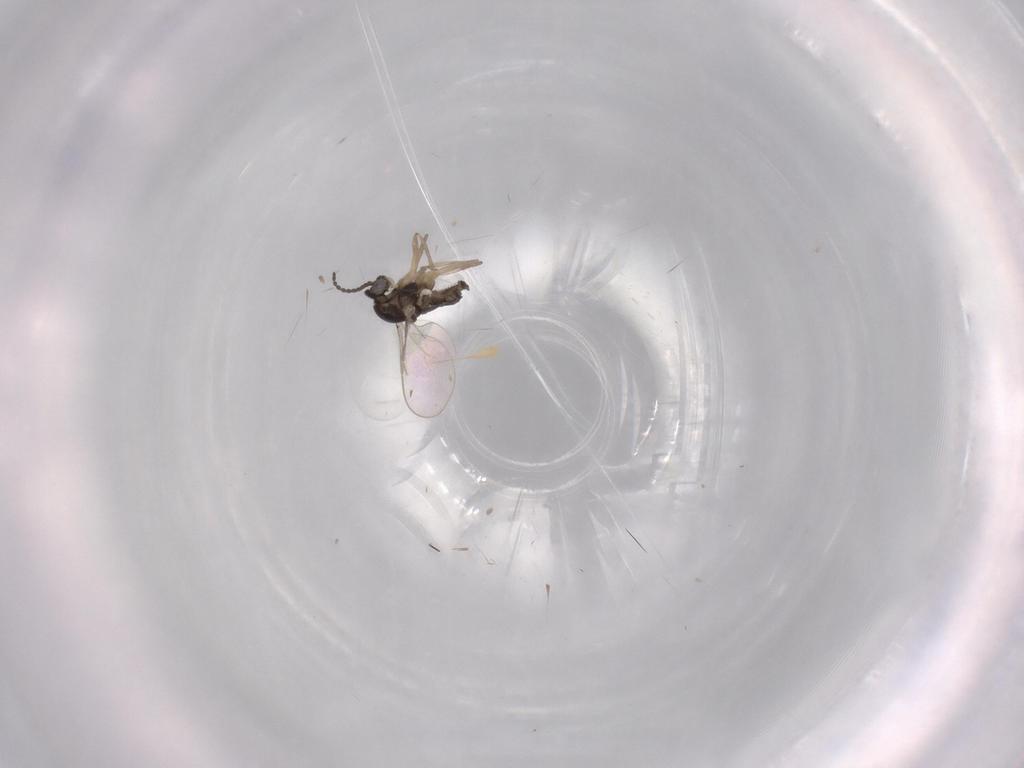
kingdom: Animalia
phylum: Arthropoda
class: Insecta
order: Diptera
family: Cecidomyiidae
